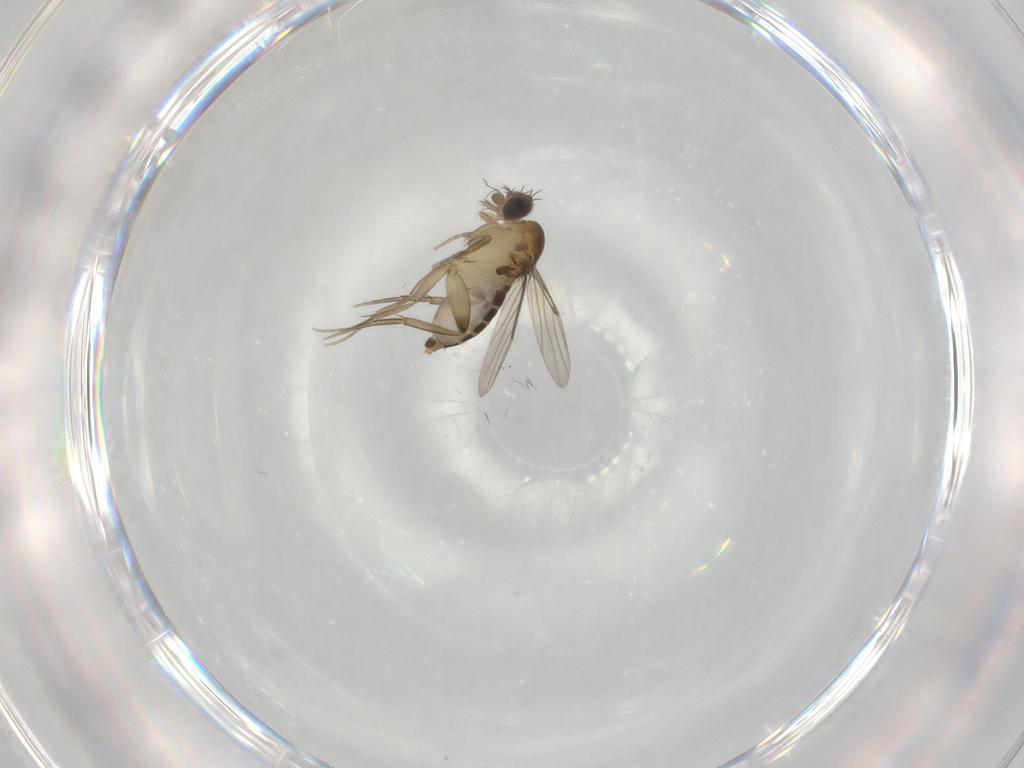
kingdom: Animalia
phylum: Arthropoda
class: Insecta
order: Diptera
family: Phoridae
